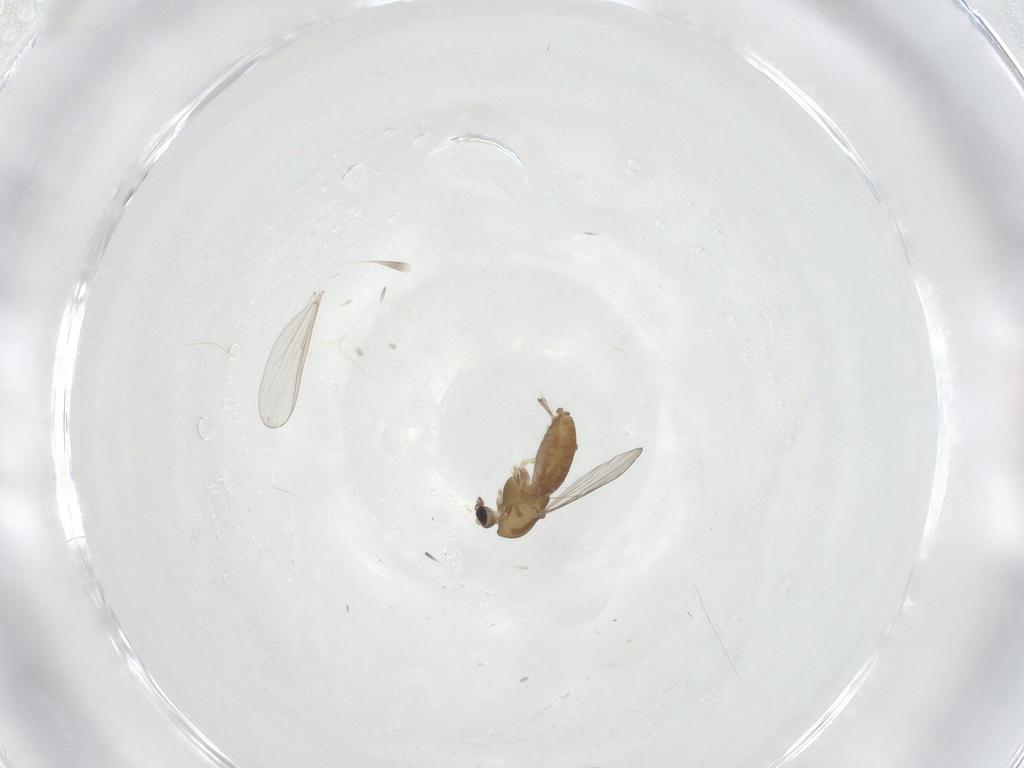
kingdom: Animalia
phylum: Arthropoda
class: Insecta
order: Diptera
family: Chironomidae
